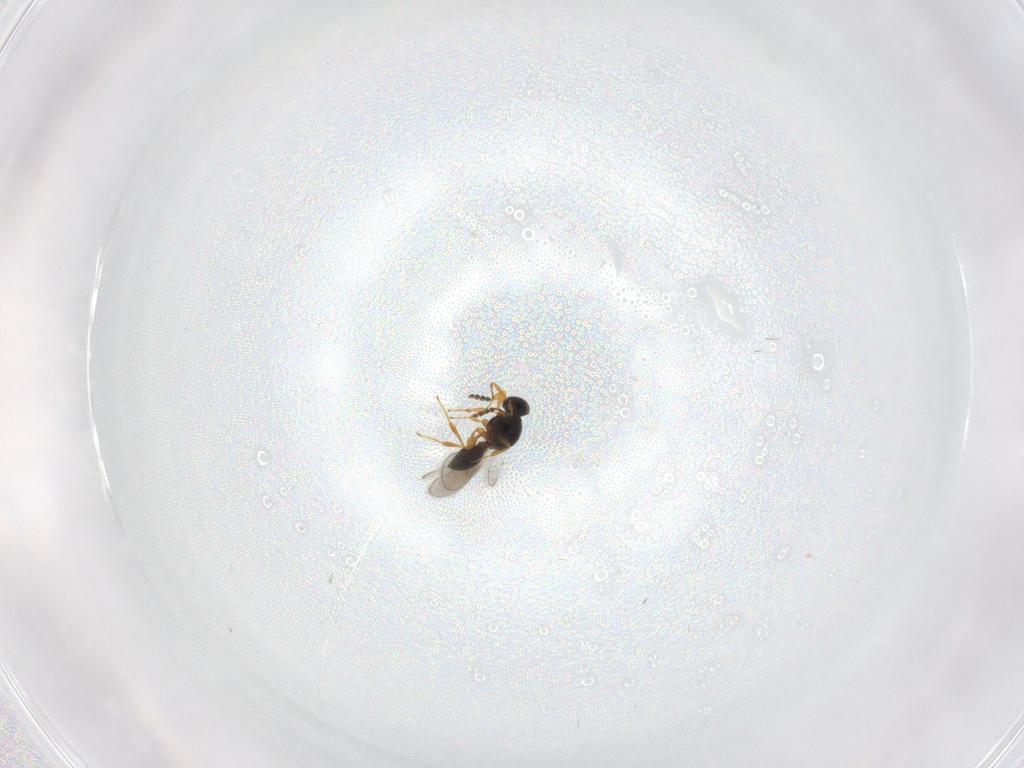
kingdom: Animalia
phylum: Arthropoda
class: Insecta
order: Hymenoptera
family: Platygastridae
